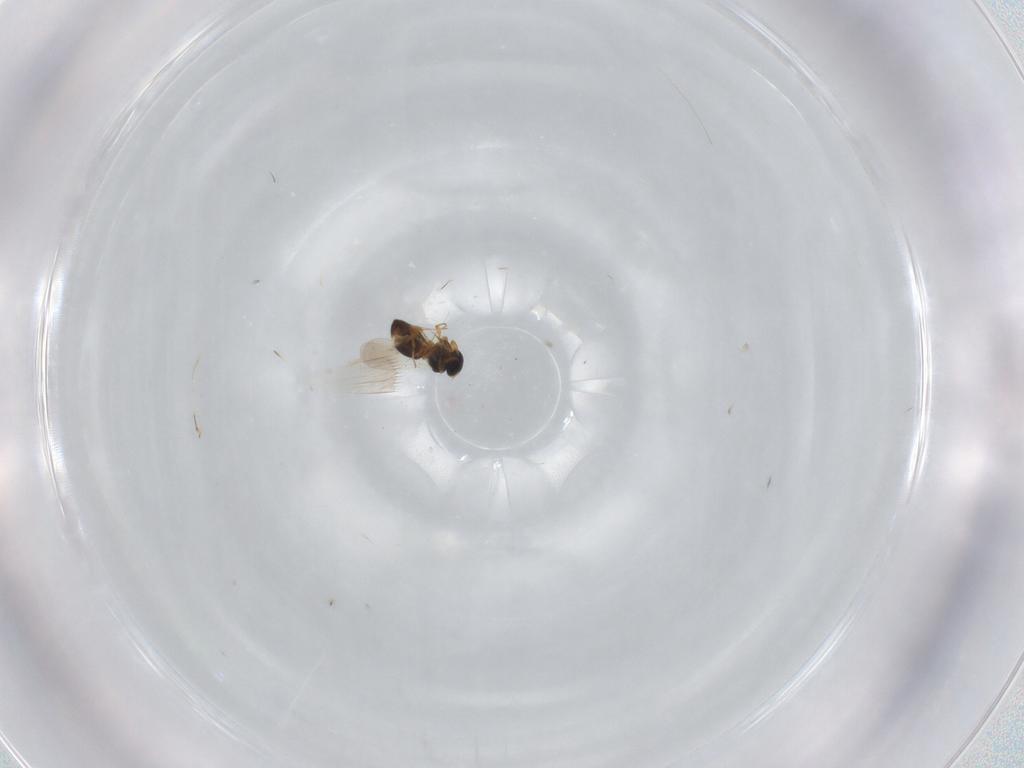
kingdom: Animalia
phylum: Arthropoda
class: Insecta
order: Hymenoptera
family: Platygastridae
